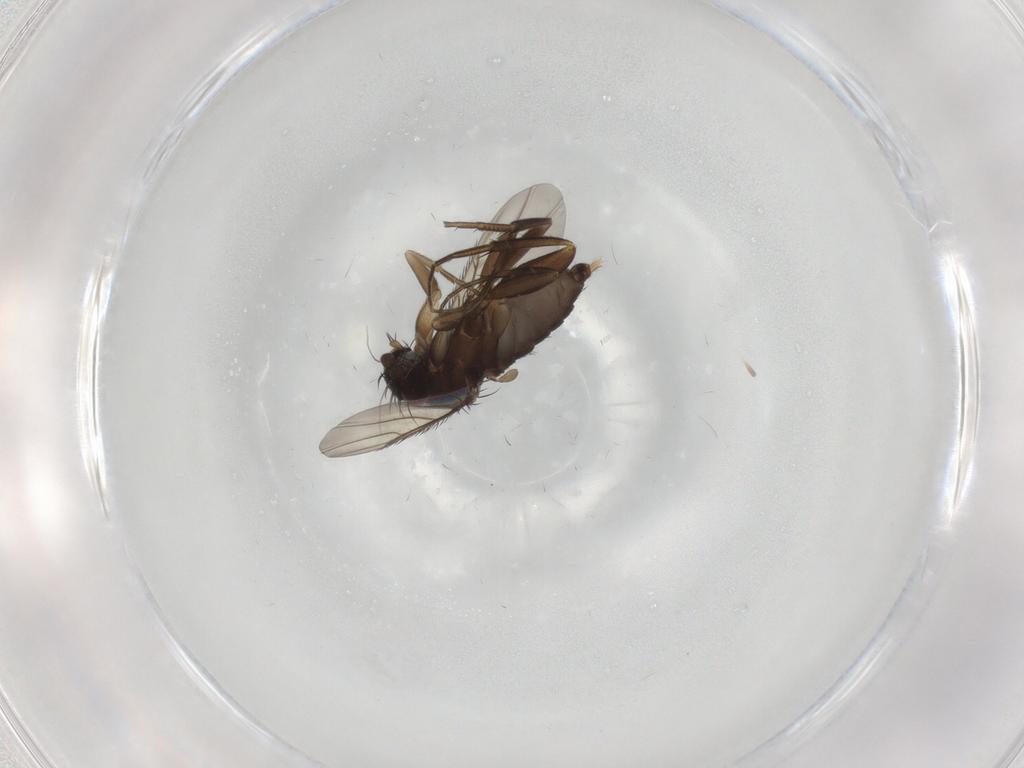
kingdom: Animalia
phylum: Arthropoda
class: Insecta
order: Diptera
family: Phoridae
